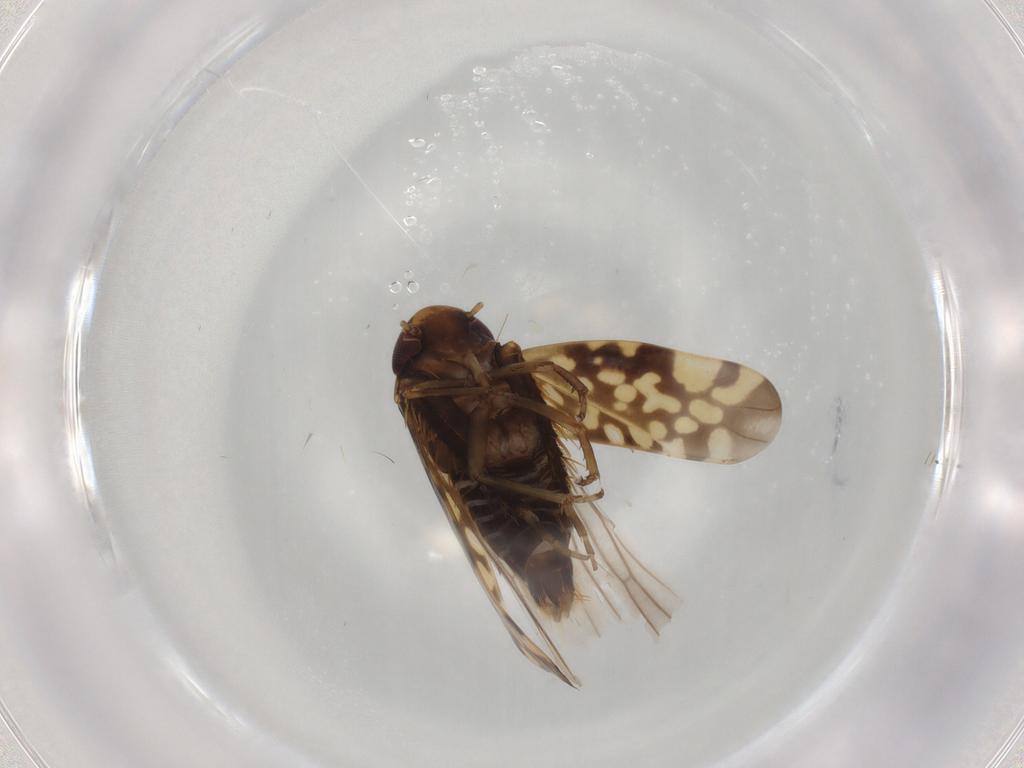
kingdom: Animalia
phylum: Arthropoda
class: Insecta
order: Hemiptera
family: Cicadellidae
